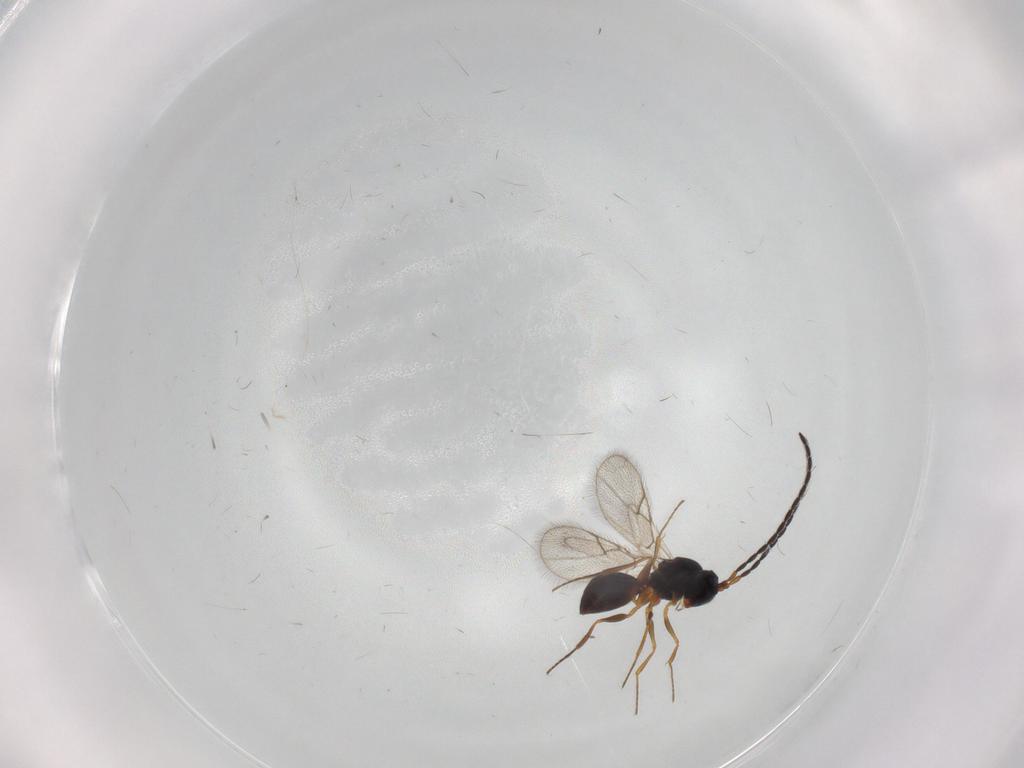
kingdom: Animalia
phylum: Arthropoda
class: Insecta
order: Hymenoptera
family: Figitidae
